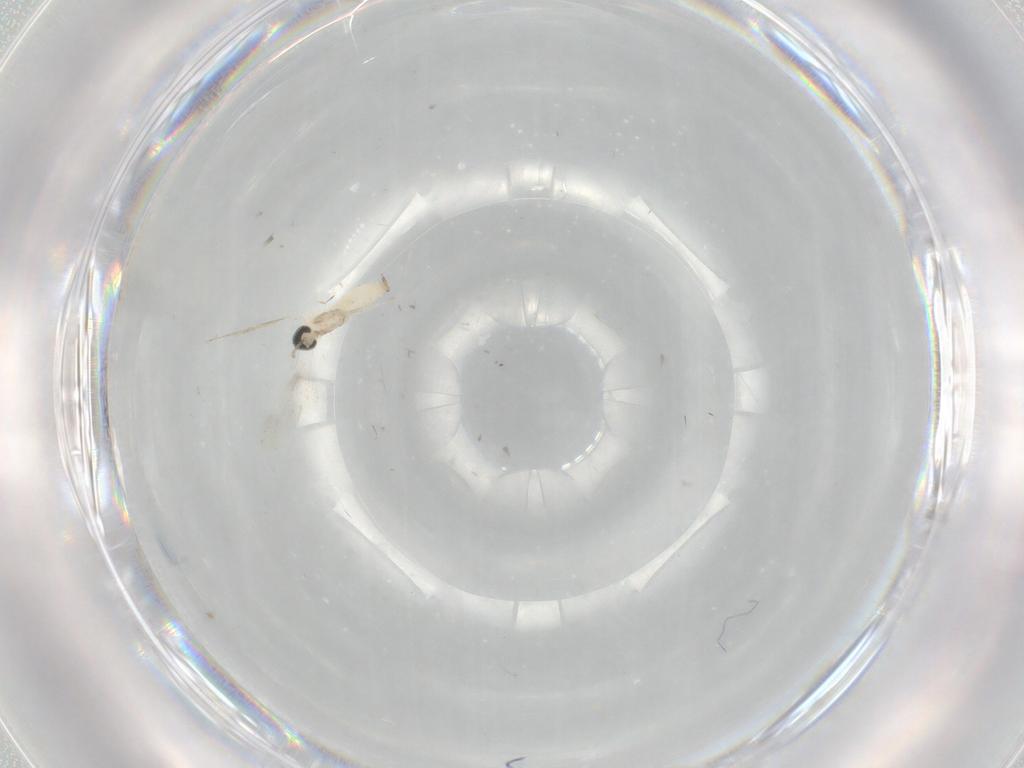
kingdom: Animalia
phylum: Arthropoda
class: Insecta
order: Diptera
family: Cecidomyiidae
